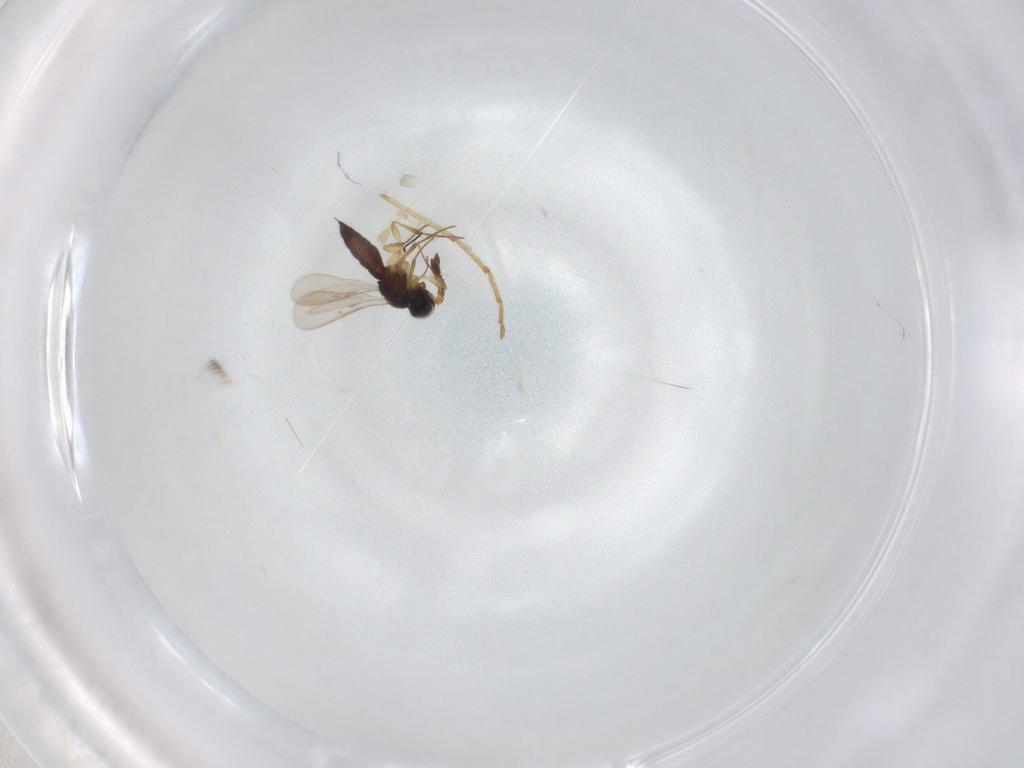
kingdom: Animalia
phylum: Arthropoda
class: Insecta
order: Hymenoptera
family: Scelionidae
